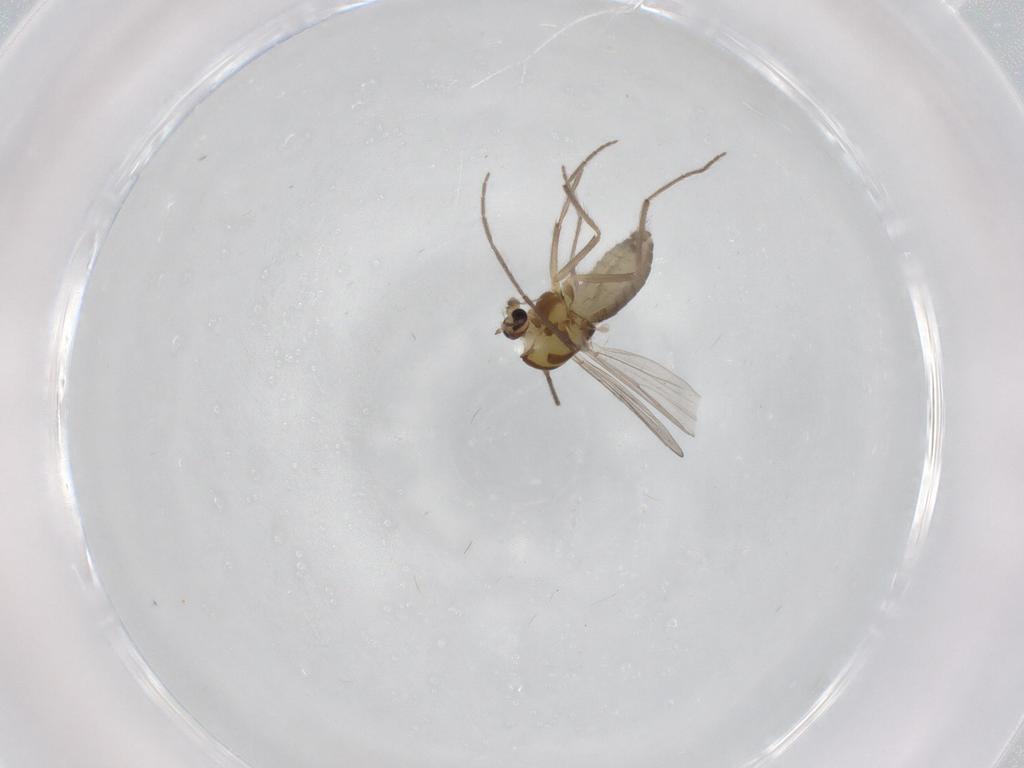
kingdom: Animalia
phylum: Arthropoda
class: Insecta
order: Diptera
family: Chironomidae
